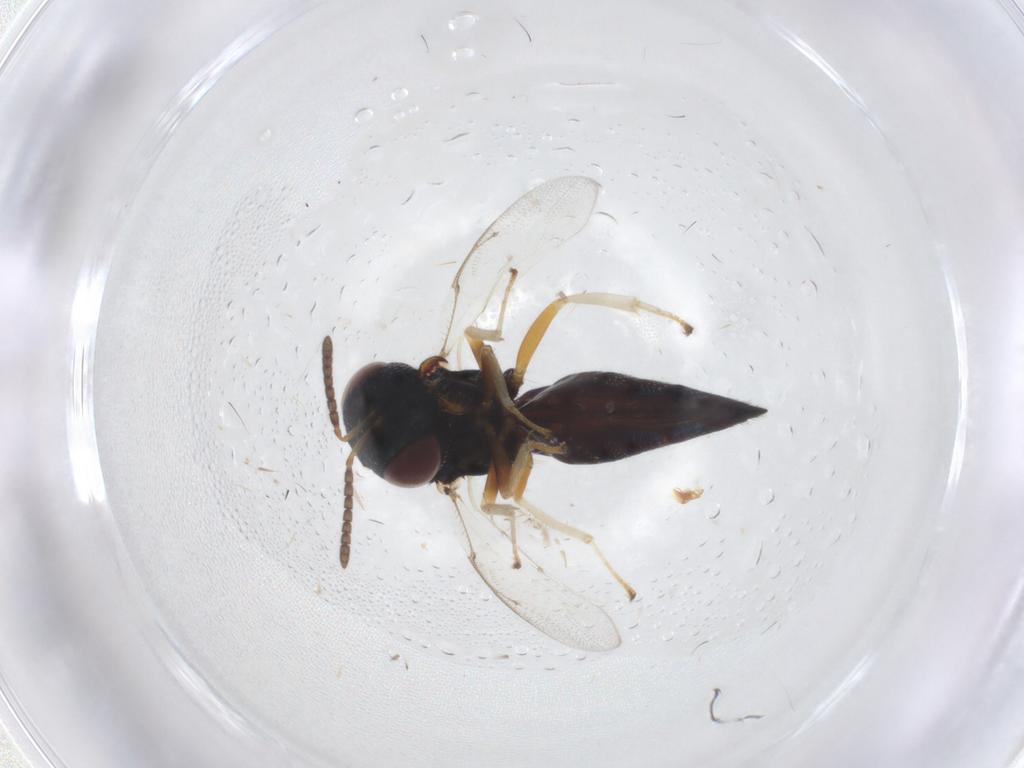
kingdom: Animalia
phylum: Arthropoda
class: Insecta
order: Hymenoptera
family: Pteromalidae
